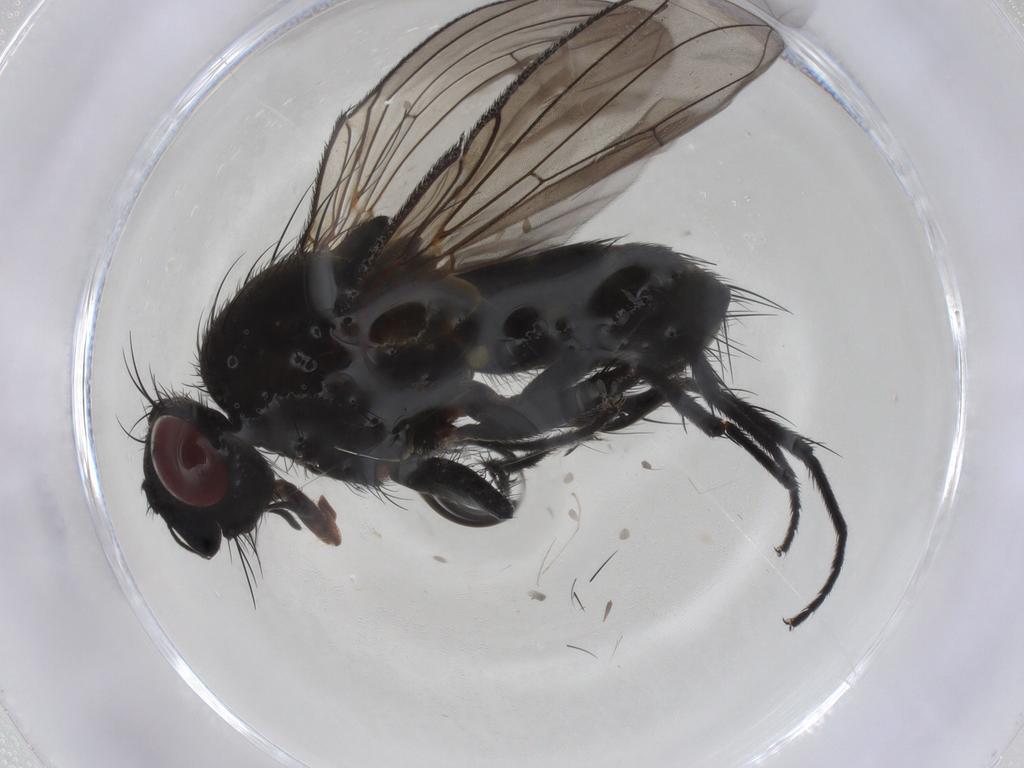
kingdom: Animalia
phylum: Arthropoda
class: Insecta
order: Diptera
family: Tachinidae
